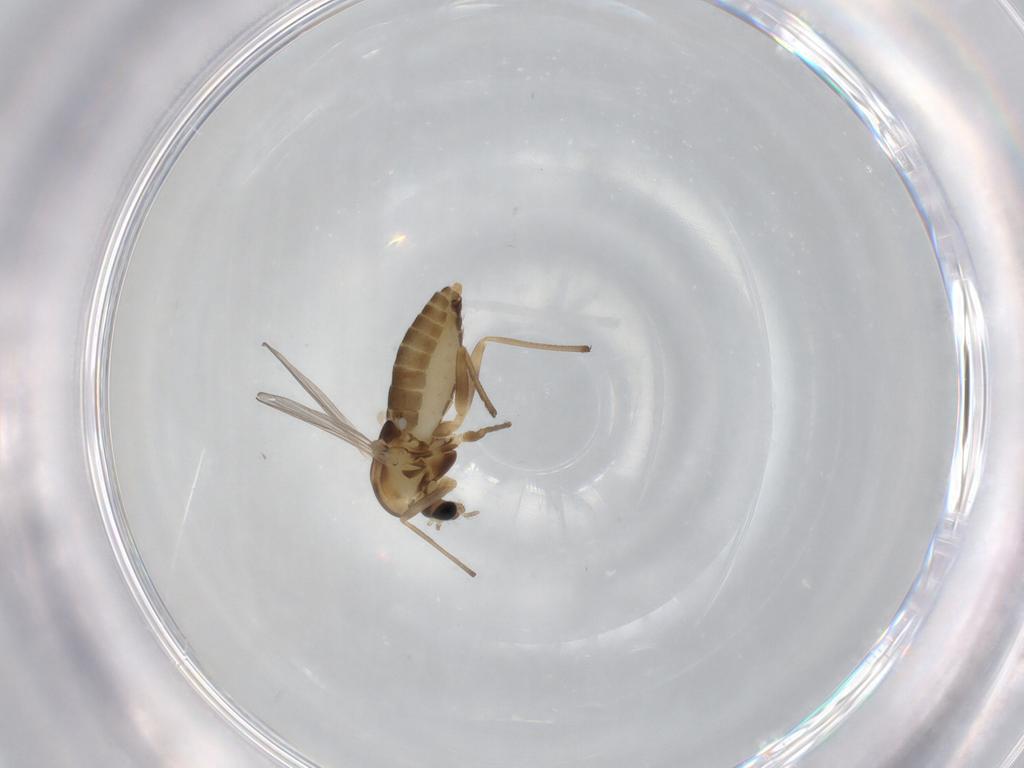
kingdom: Animalia
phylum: Arthropoda
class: Insecta
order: Diptera
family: Chironomidae
